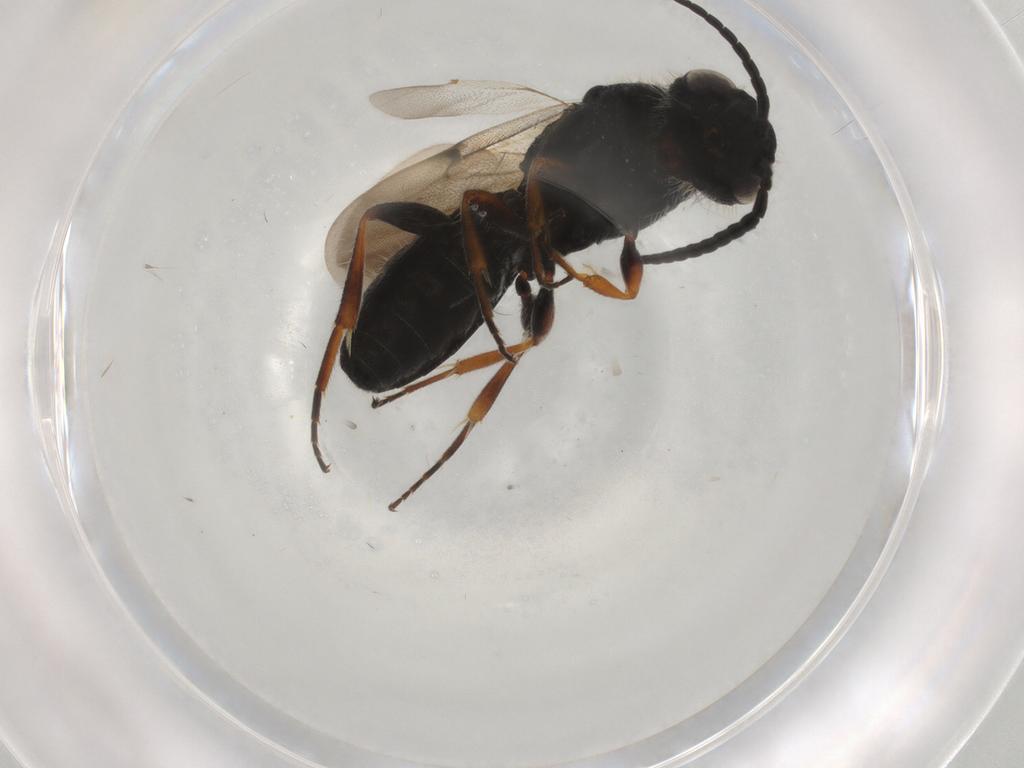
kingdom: Animalia
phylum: Arthropoda
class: Insecta
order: Hymenoptera
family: Scelionidae
